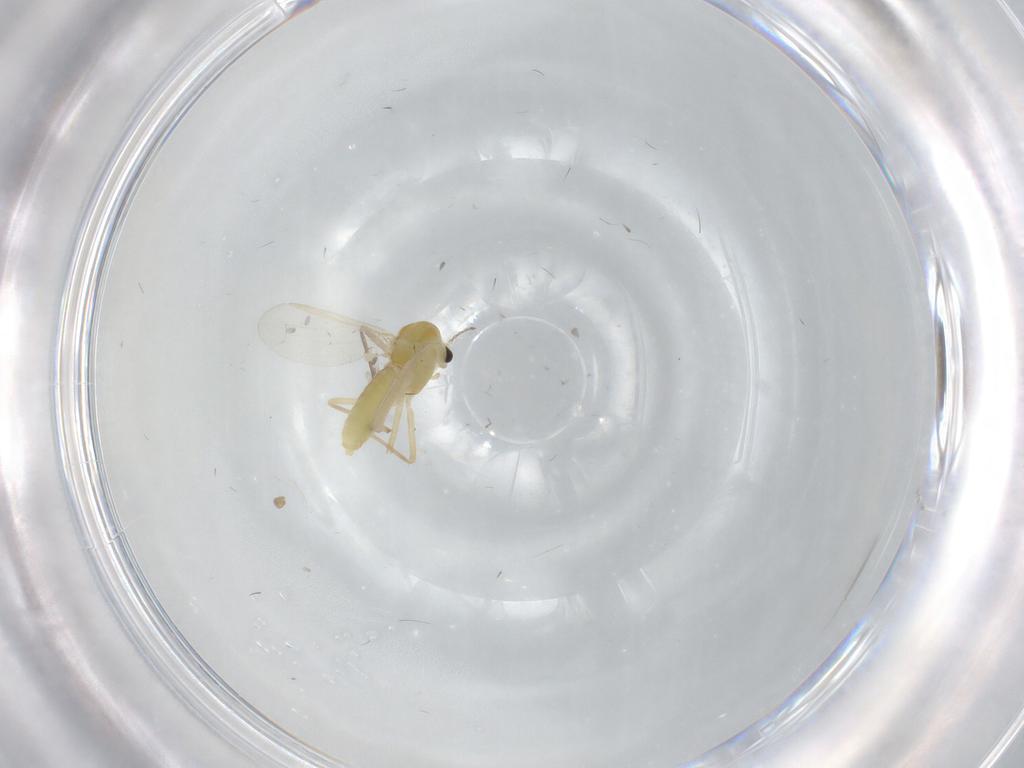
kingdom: Animalia
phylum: Arthropoda
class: Insecta
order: Diptera
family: Chironomidae
